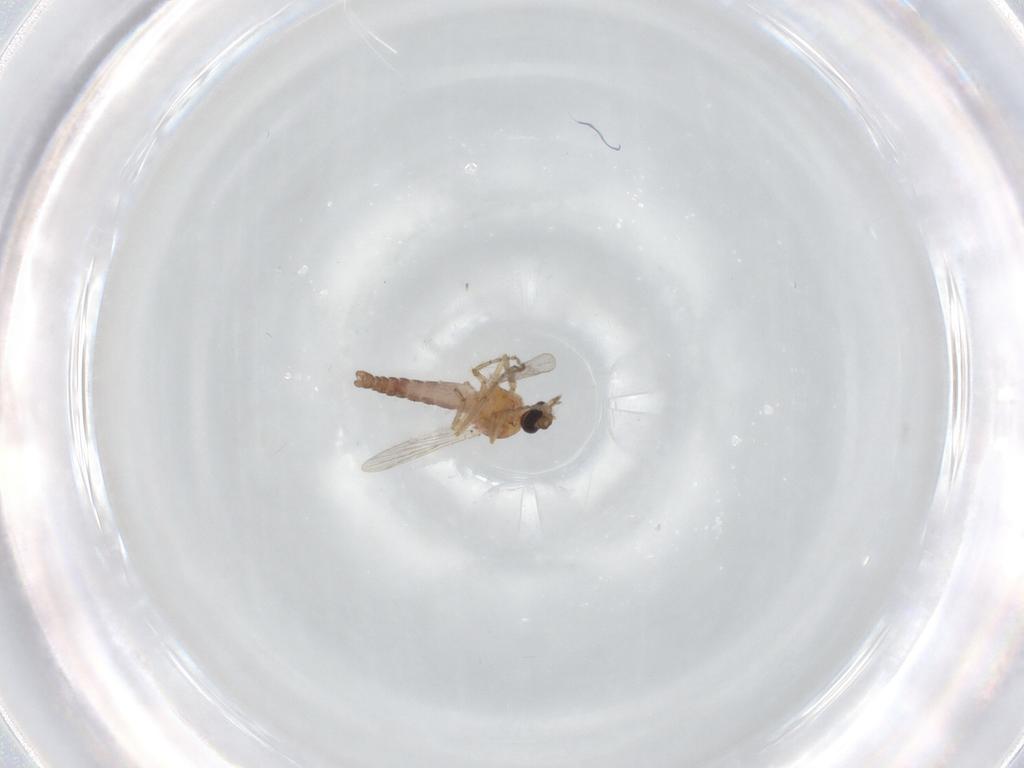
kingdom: Animalia
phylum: Arthropoda
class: Insecta
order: Diptera
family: Ceratopogonidae
